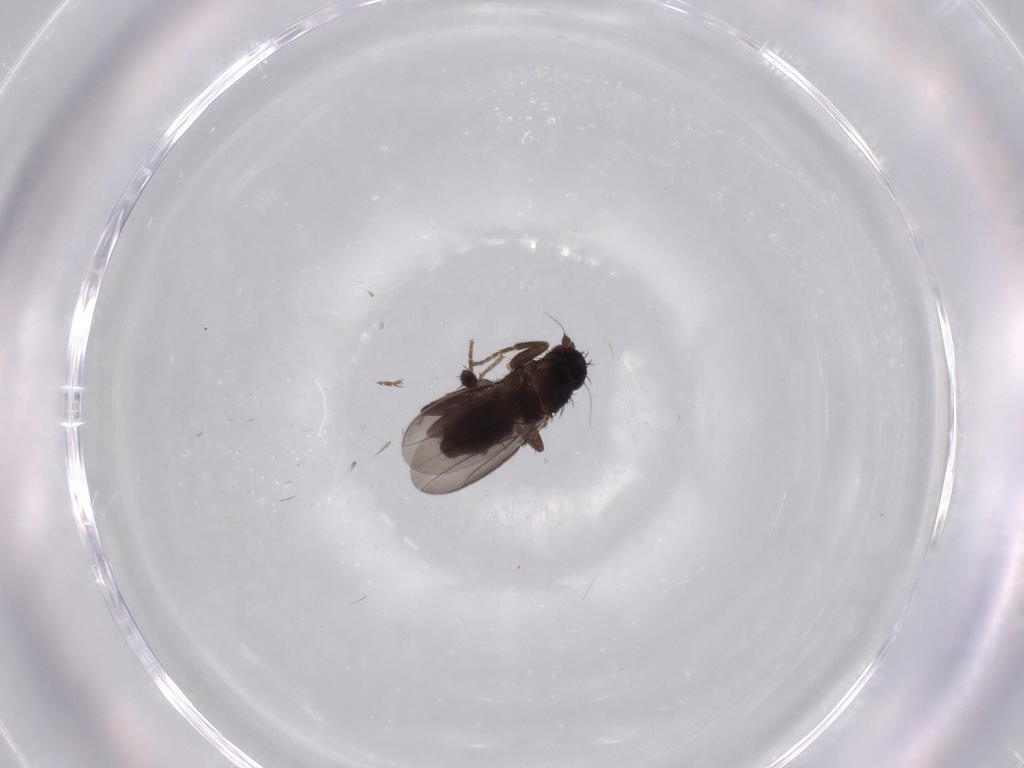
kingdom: Animalia
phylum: Arthropoda
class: Insecta
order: Diptera
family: Sphaeroceridae
